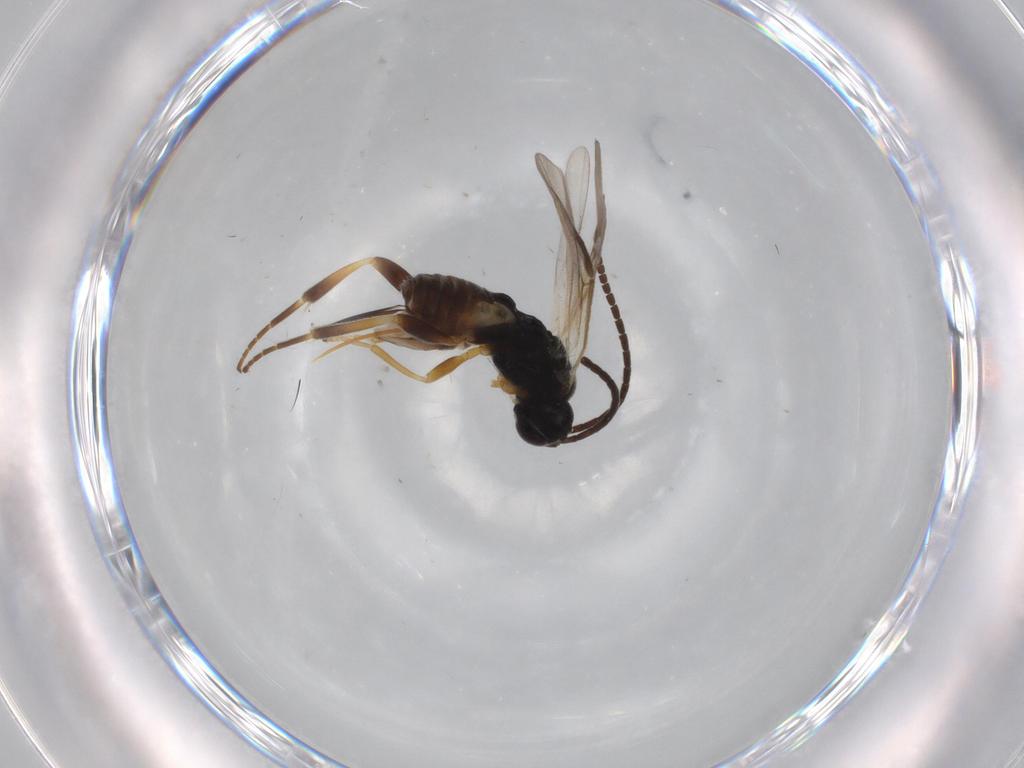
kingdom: Animalia
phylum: Arthropoda
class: Insecta
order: Hymenoptera
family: Braconidae
